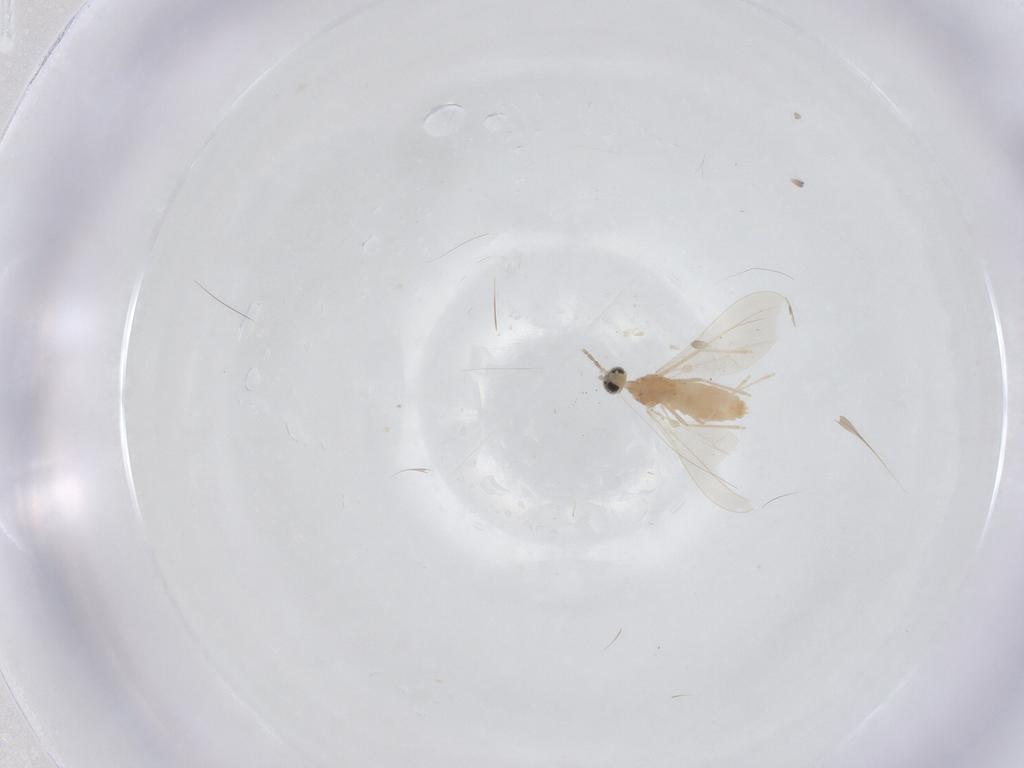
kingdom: Animalia
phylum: Arthropoda
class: Insecta
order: Diptera
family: Cecidomyiidae
